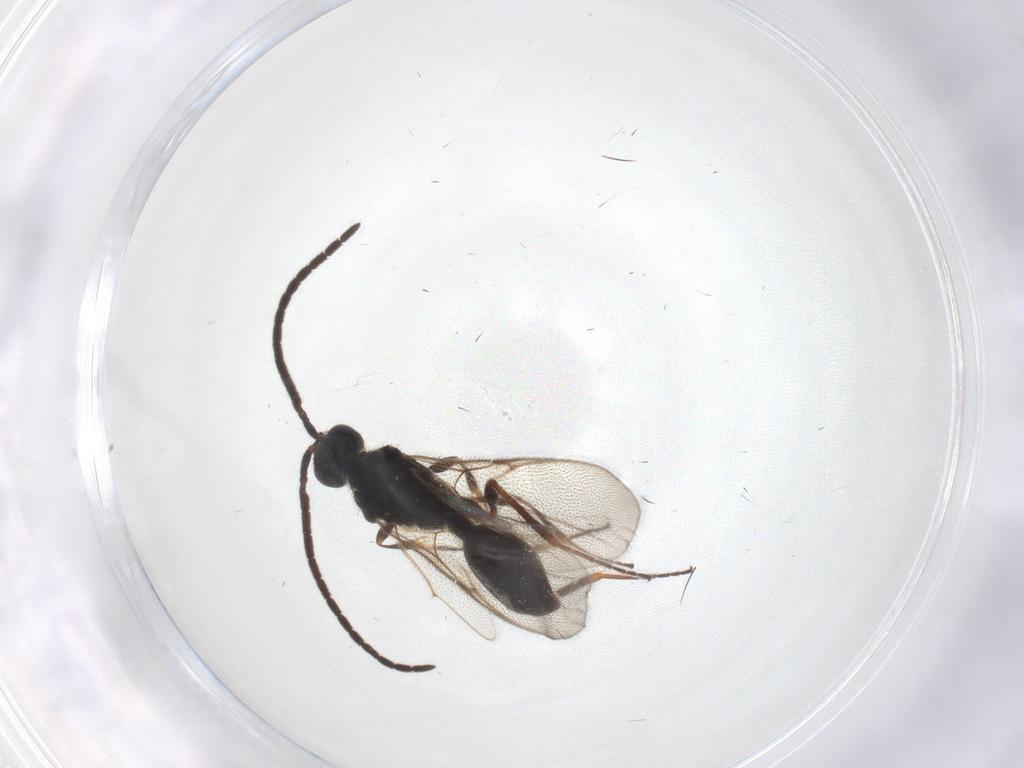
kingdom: Animalia
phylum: Arthropoda
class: Insecta
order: Hymenoptera
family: Diapriidae
